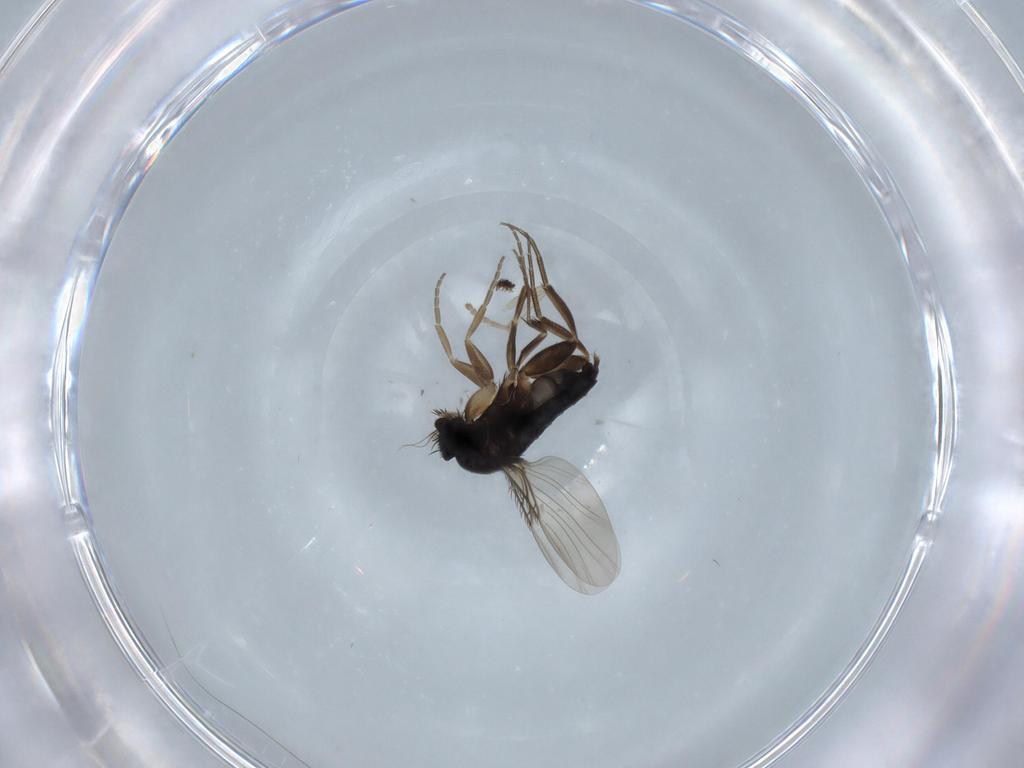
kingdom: Animalia
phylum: Arthropoda
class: Insecta
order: Diptera
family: Phoridae
